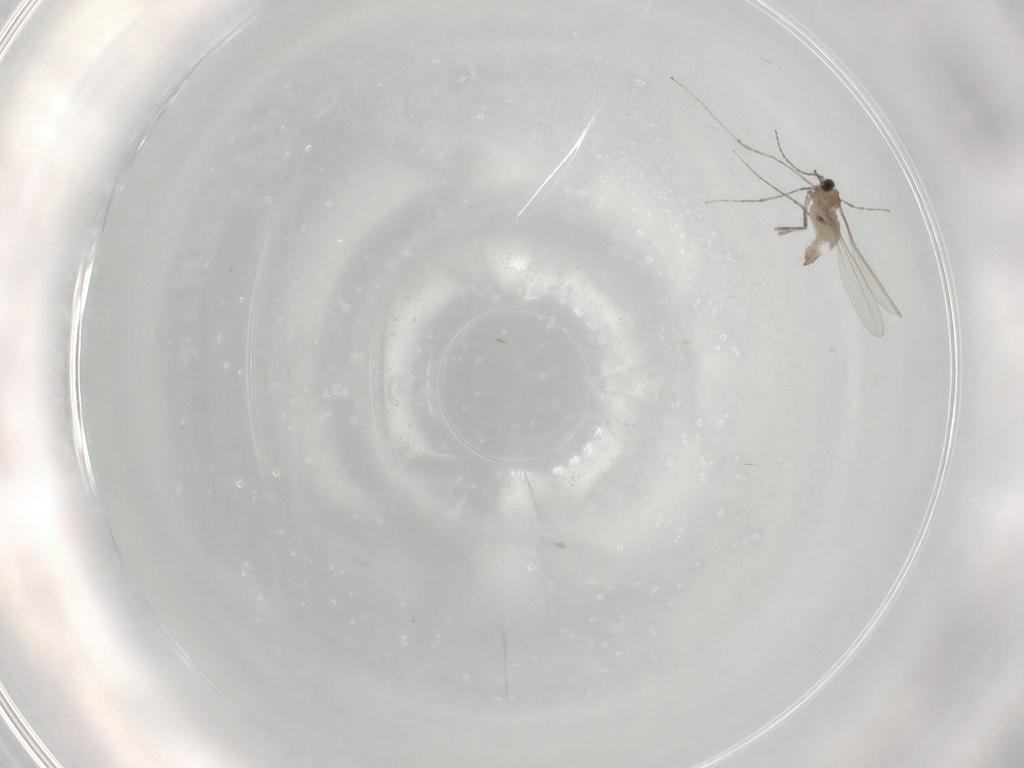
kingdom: Animalia
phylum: Arthropoda
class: Insecta
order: Diptera
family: Cecidomyiidae
